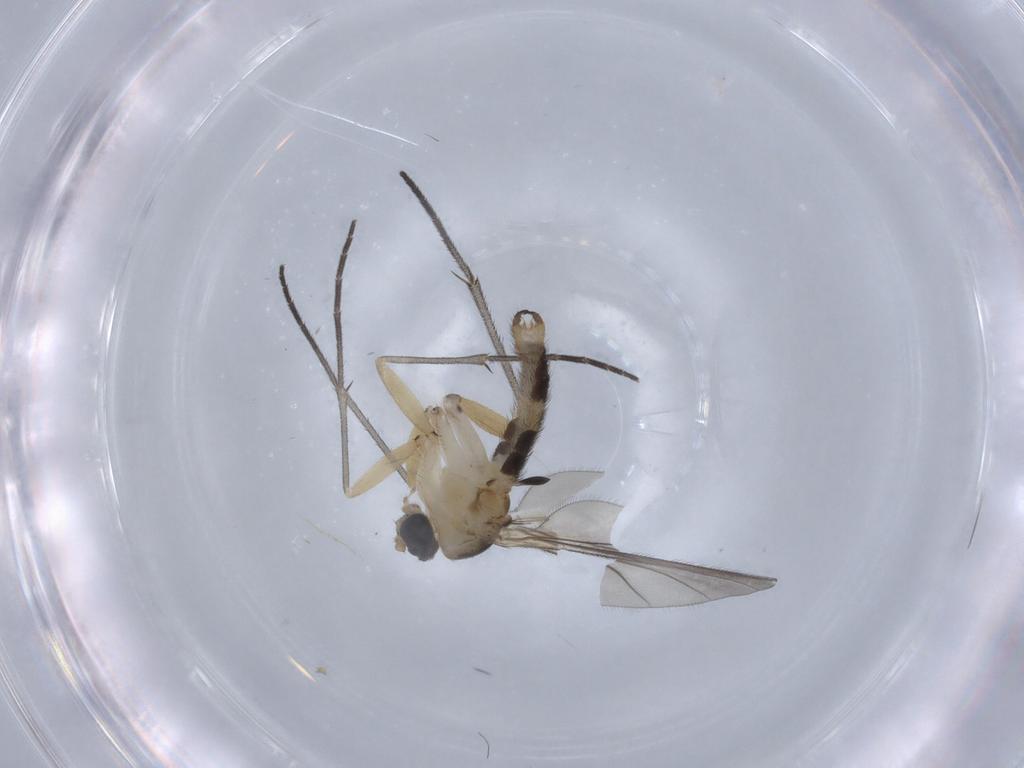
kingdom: Animalia
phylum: Arthropoda
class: Insecta
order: Diptera
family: Sciaridae
